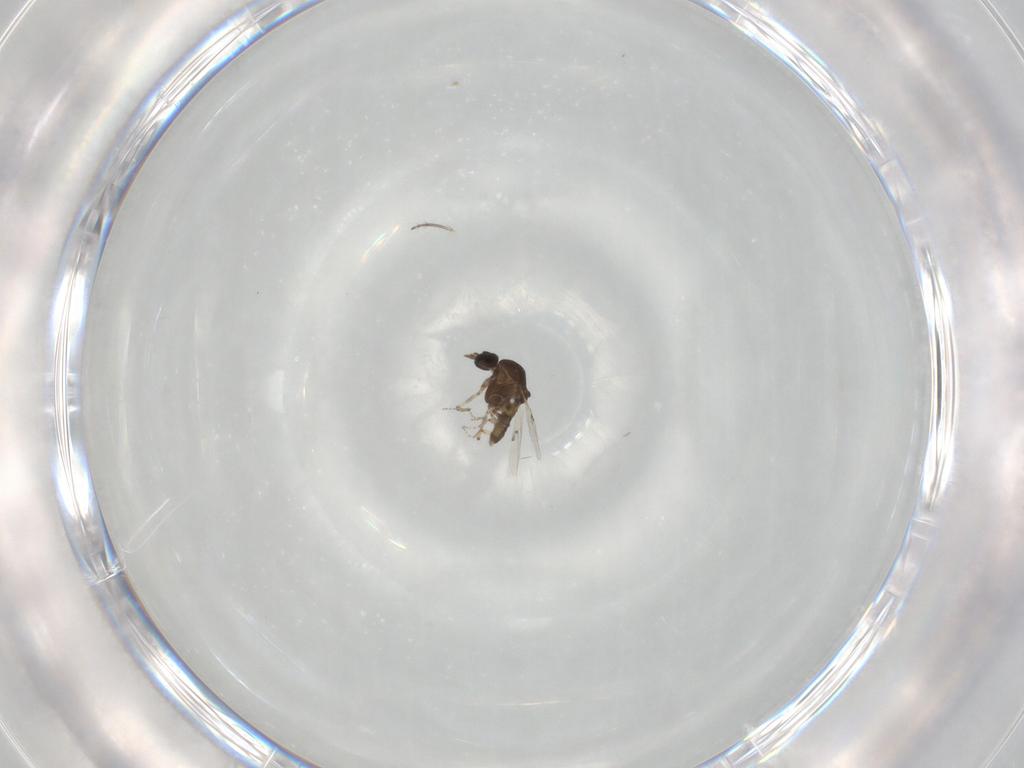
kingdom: Animalia
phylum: Arthropoda
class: Insecta
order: Diptera
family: Ceratopogonidae
